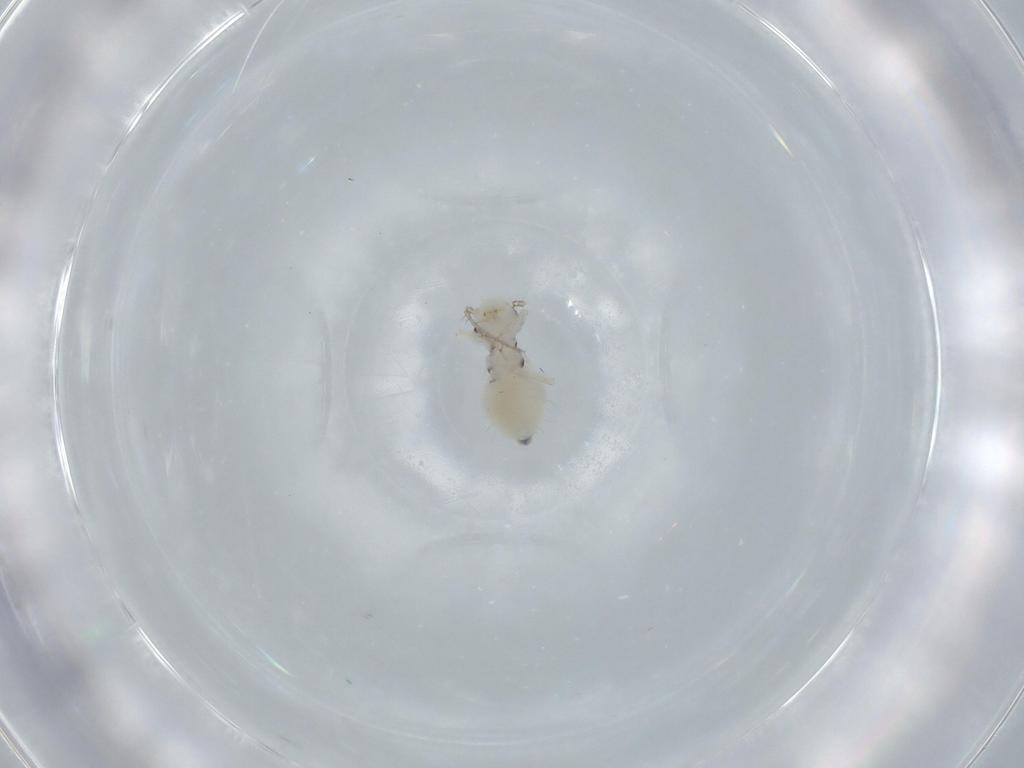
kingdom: Animalia
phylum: Arthropoda
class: Insecta
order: Psocodea
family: Pseudocaeciliidae
